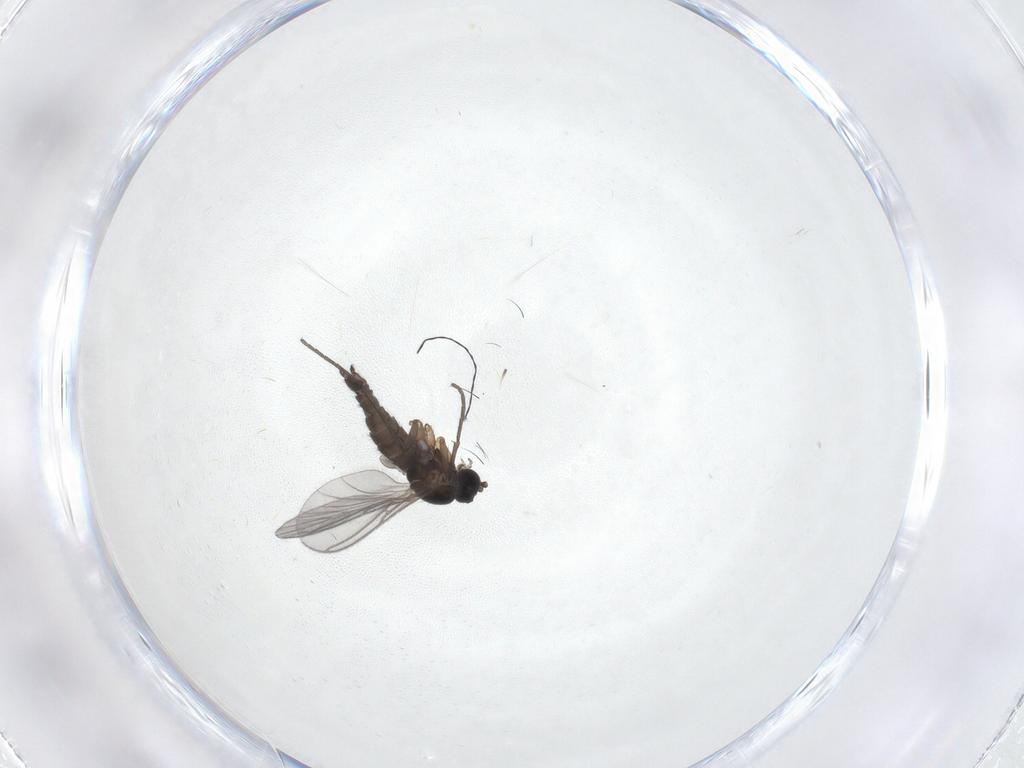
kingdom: Animalia
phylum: Arthropoda
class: Insecta
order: Diptera
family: Sciaridae
